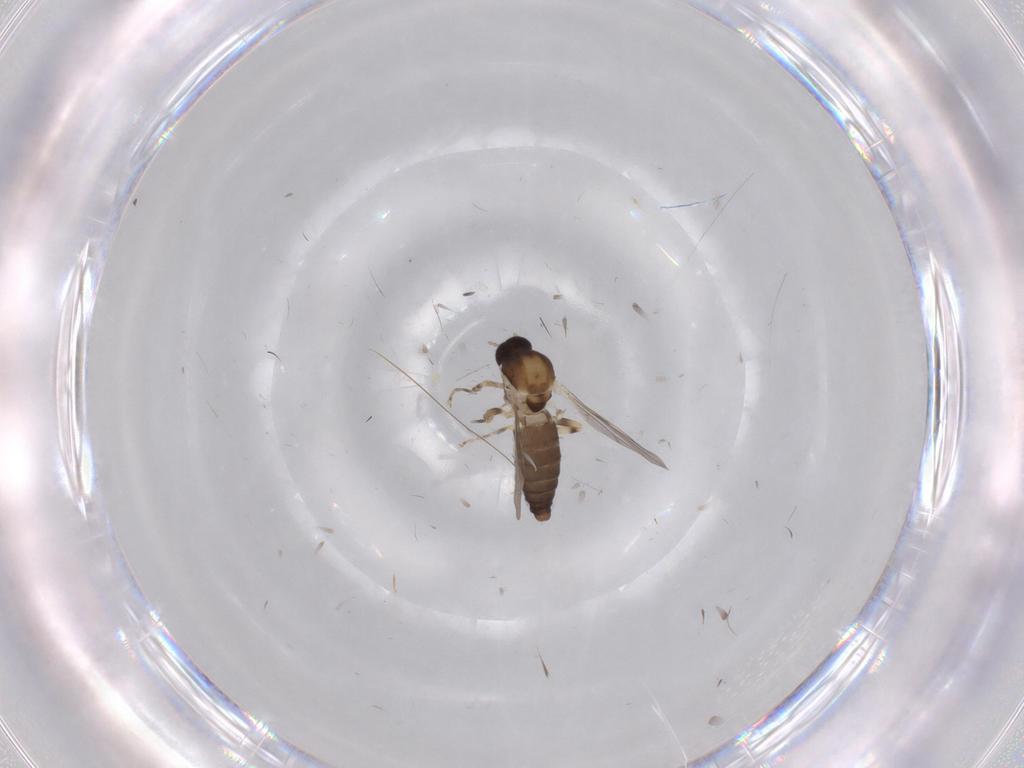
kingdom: Animalia
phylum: Arthropoda
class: Insecta
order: Diptera
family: Ceratopogonidae
